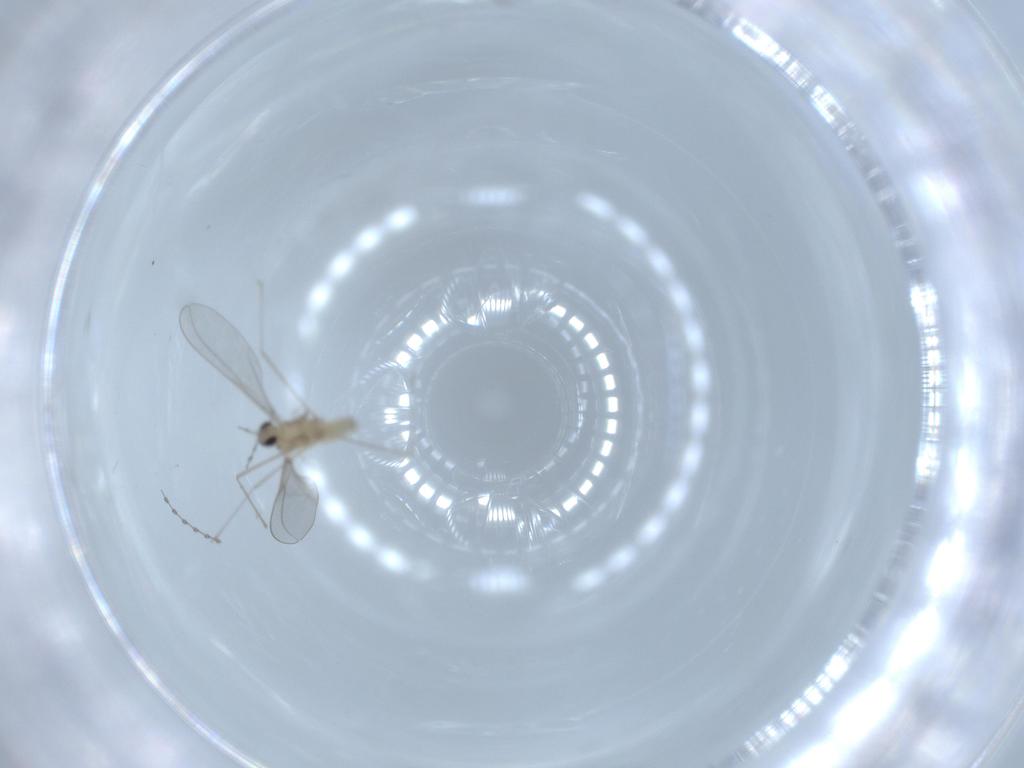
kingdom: Animalia
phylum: Arthropoda
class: Insecta
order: Diptera
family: Cecidomyiidae
